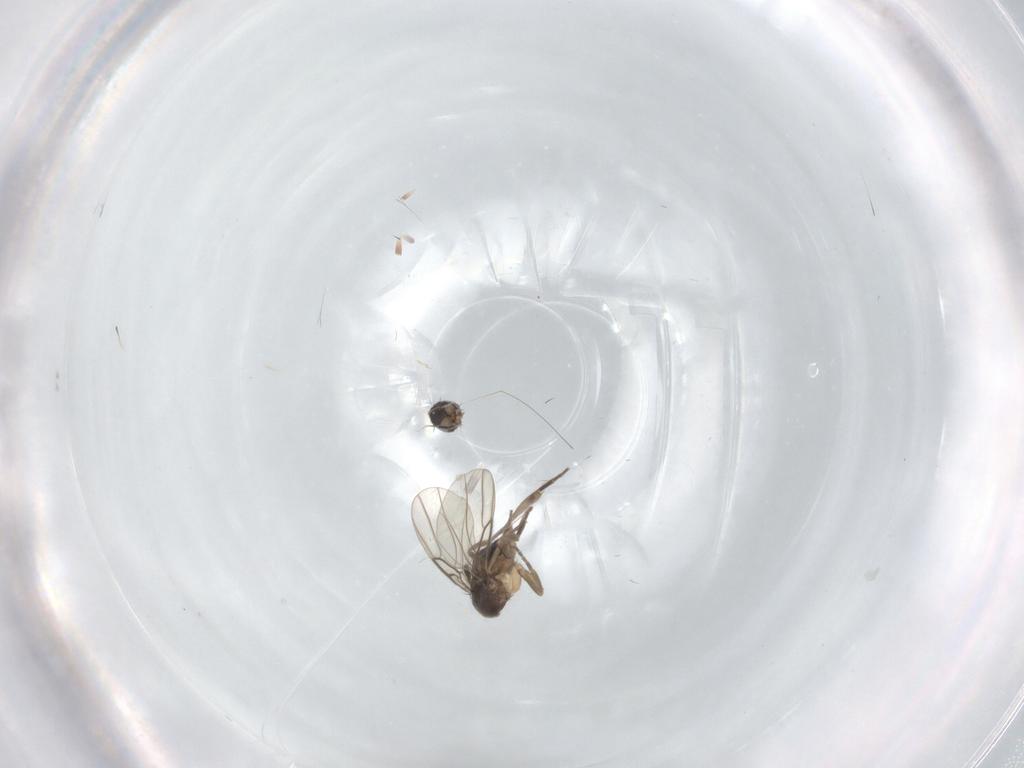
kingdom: Animalia
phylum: Arthropoda
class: Insecta
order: Diptera
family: Phoridae
